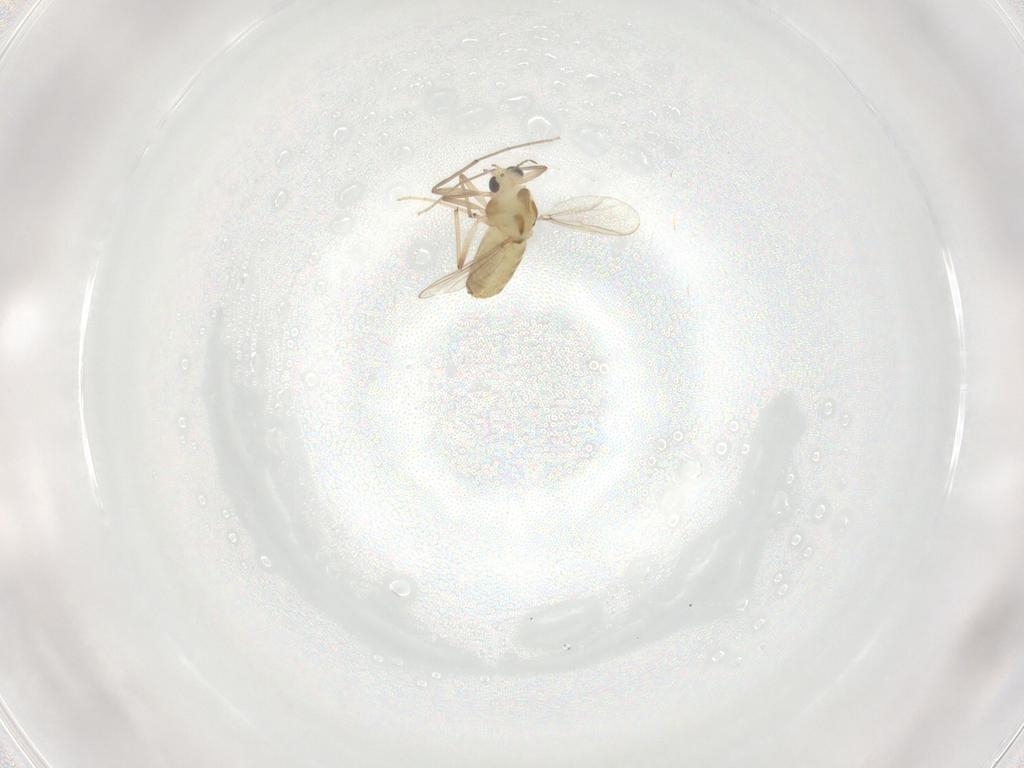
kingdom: Animalia
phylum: Arthropoda
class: Insecta
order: Diptera
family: Chironomidae
